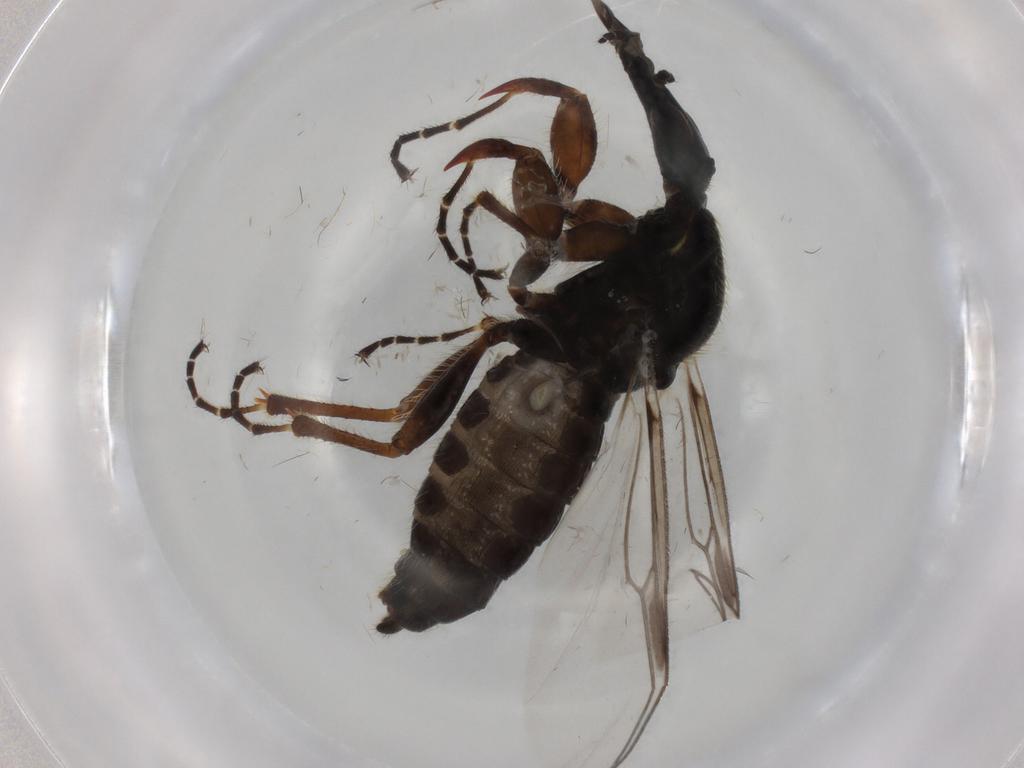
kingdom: Animalia
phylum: Arthropoda
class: Insecta
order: Diptera
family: Bibionidae
